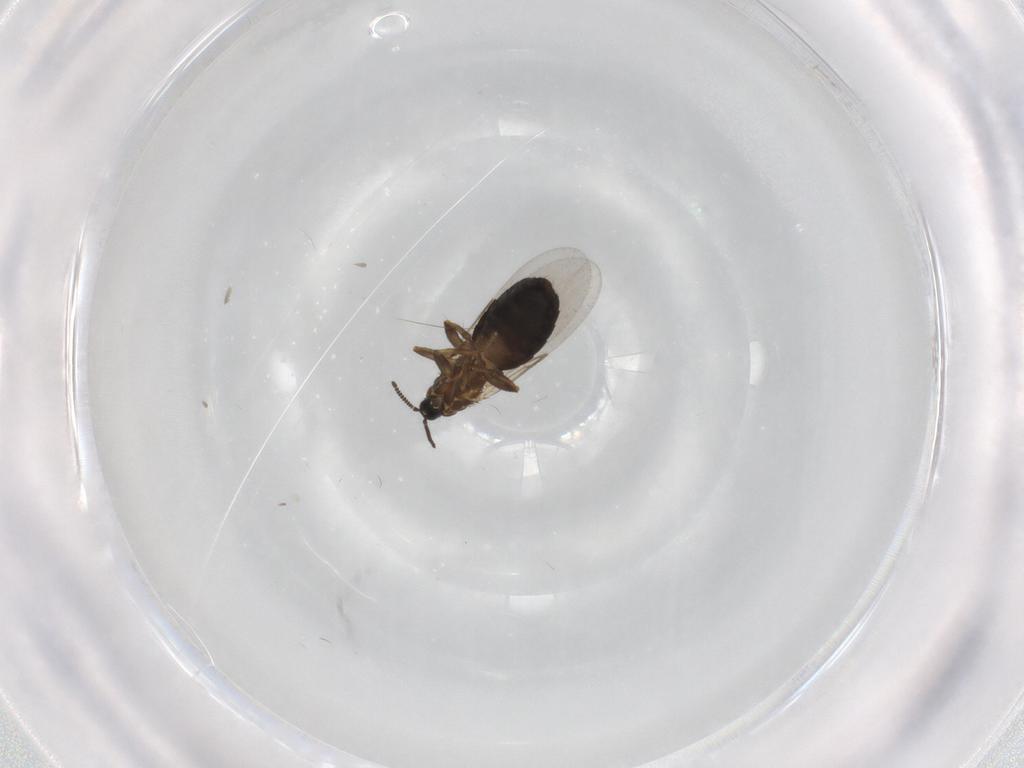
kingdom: Animalia
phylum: Arthropoda
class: Insecta
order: Diptera
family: Scatopsidae
